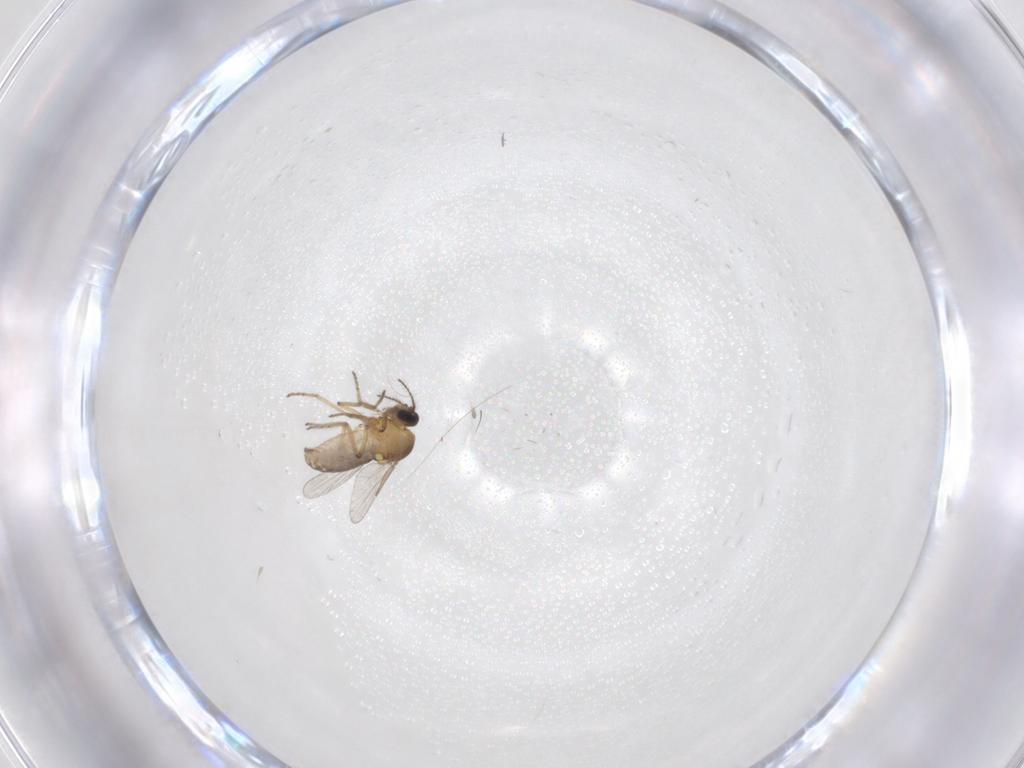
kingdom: Animalia
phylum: Arthropoda
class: Insecta
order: Diptera
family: Ceratopogonidae
